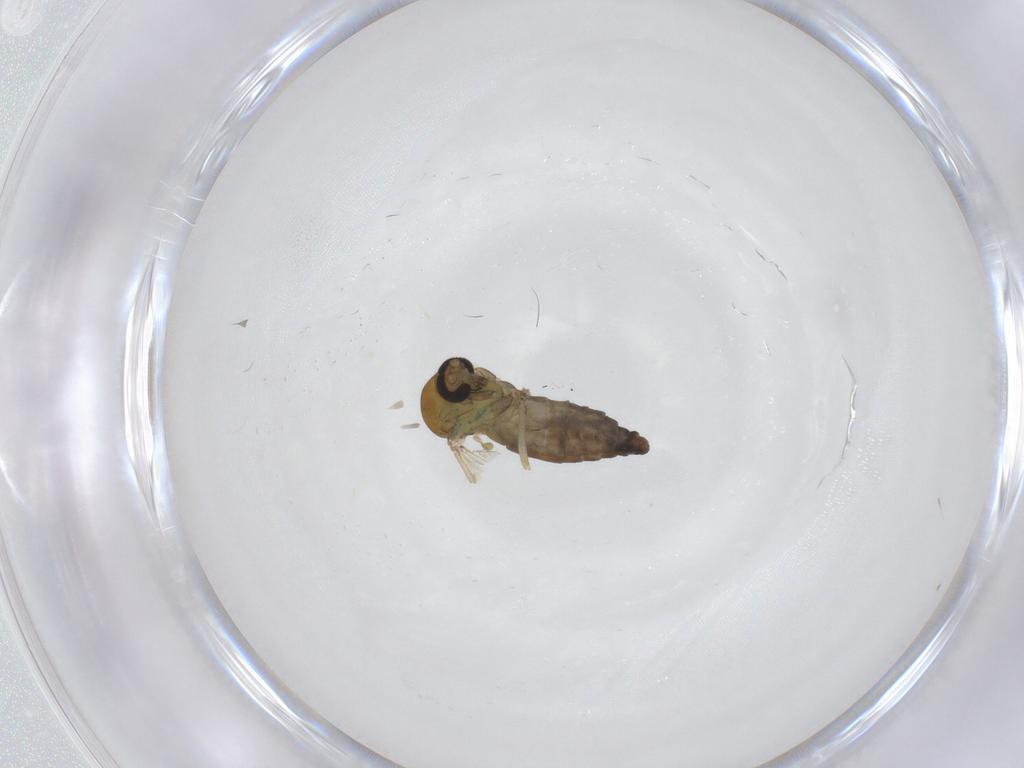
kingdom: Animalia
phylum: Arthropoda
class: Insecta
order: Diptera
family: Ceratopogonidae
